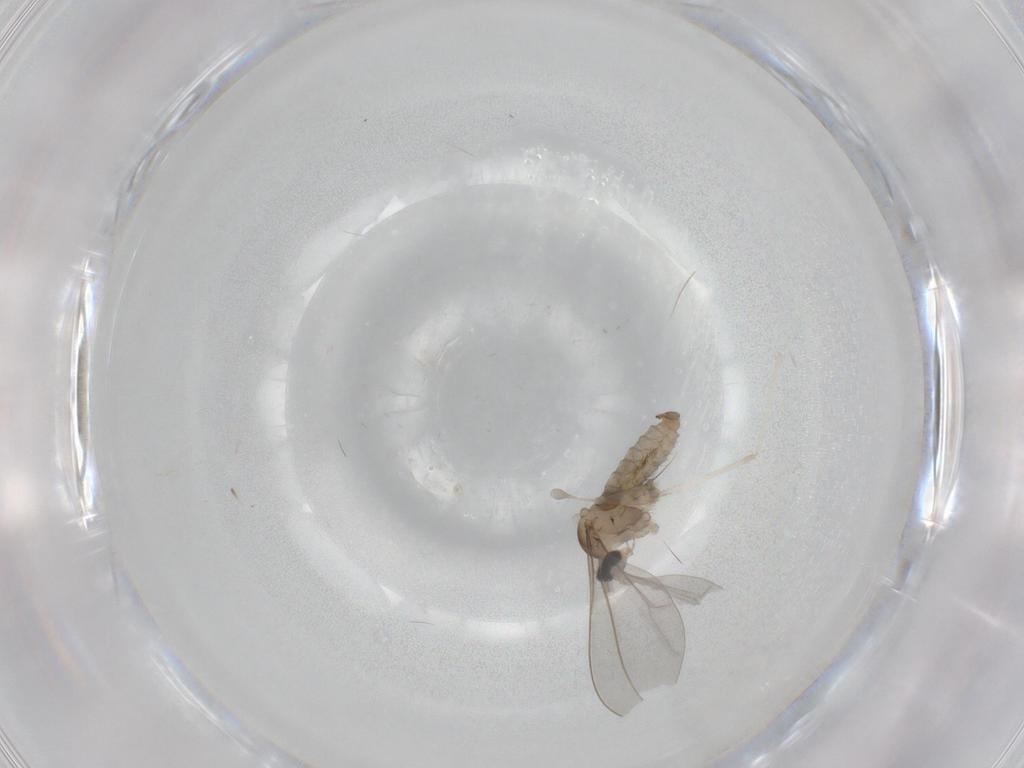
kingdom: Animalia
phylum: Arthropoda
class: Insecta
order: Diptera
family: Cecidomyiidae
